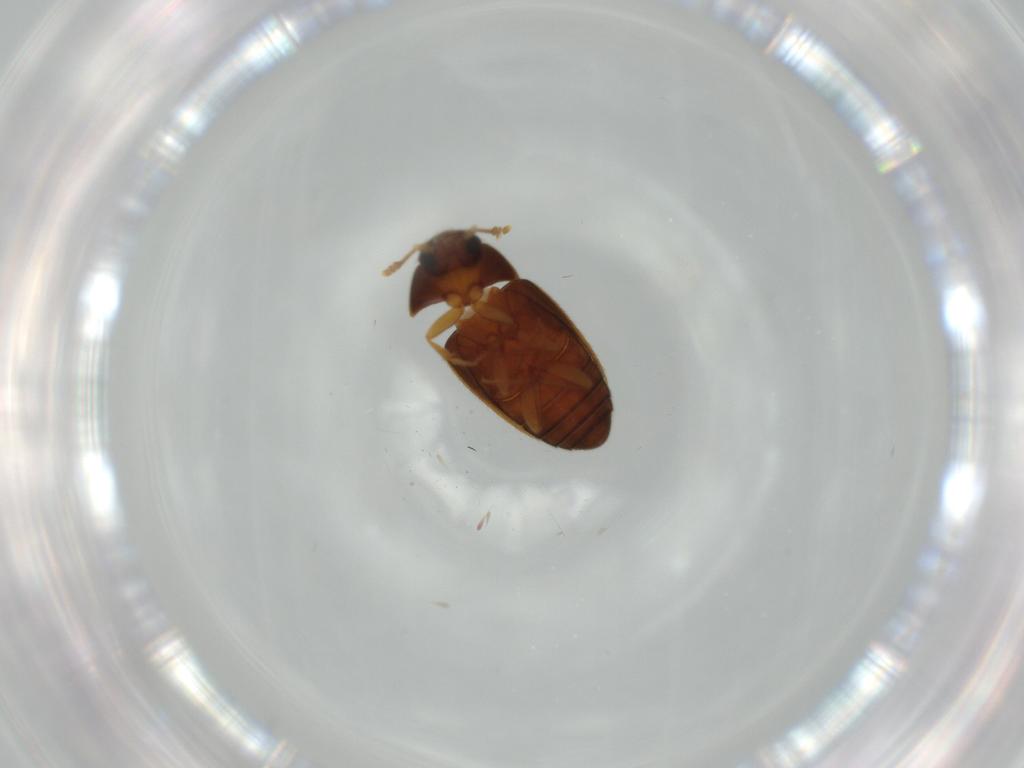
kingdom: Animalia
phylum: Arthropoda
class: Insecta
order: Coleoptera
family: Mycetophagidae
